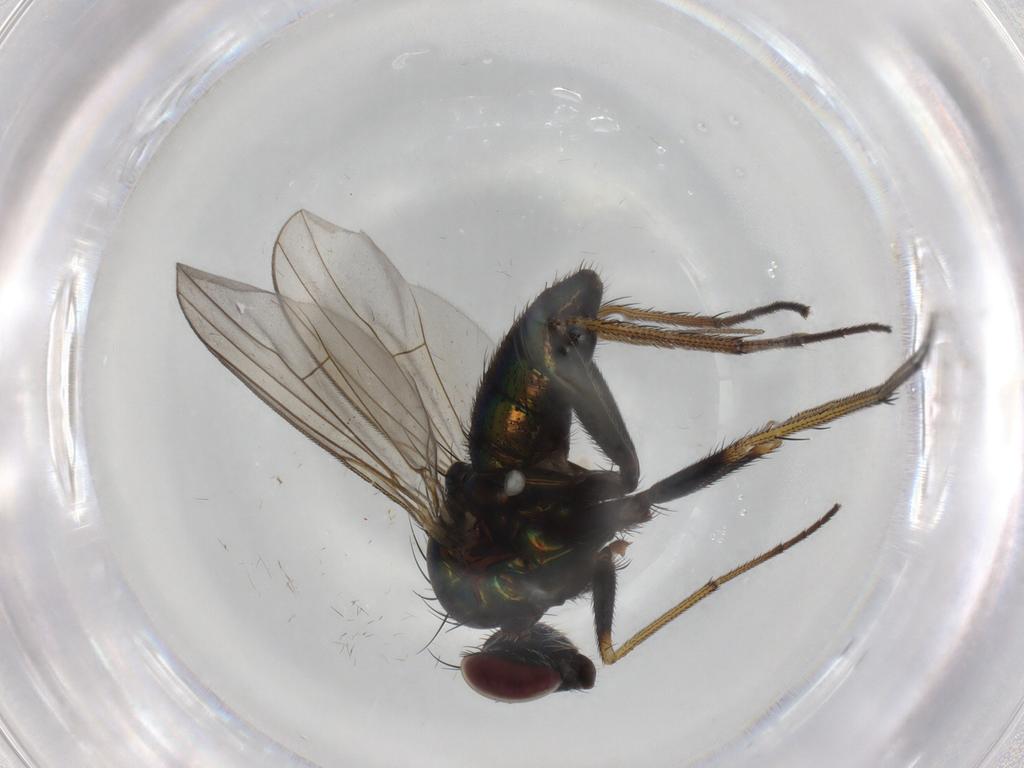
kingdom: Animalia
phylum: Arthropoda
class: Insecta
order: Diptera
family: Dolichopodidae
